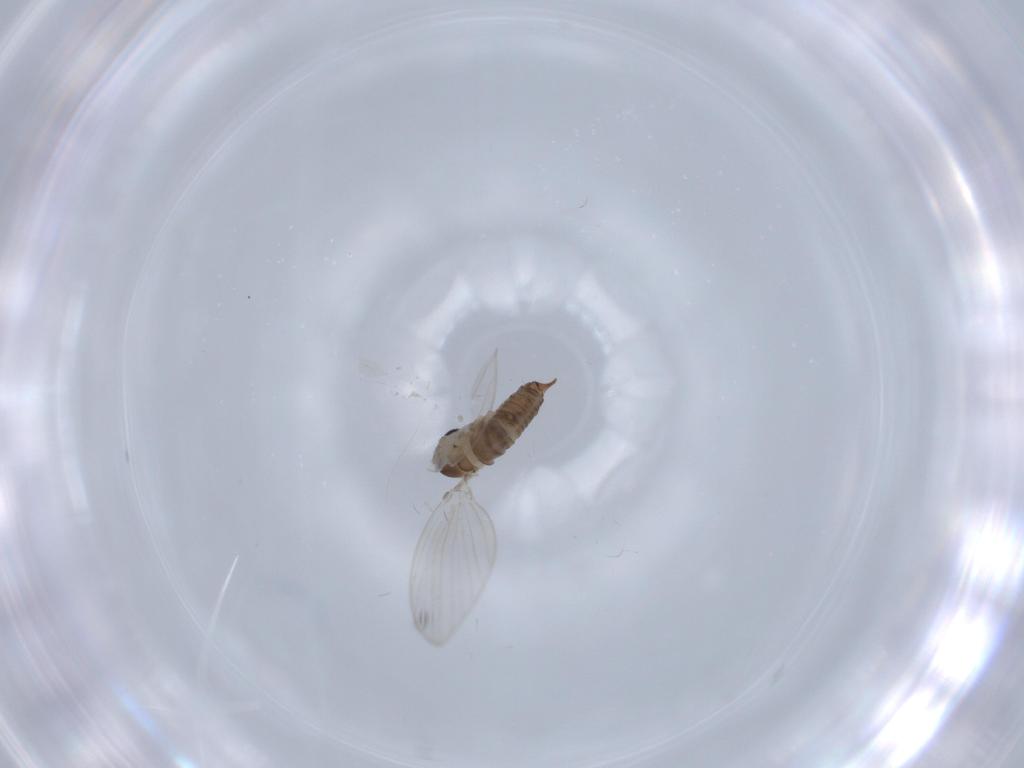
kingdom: Animalia
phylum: Arthropoda
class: Insecta
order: Diptera
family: Psychodidae
